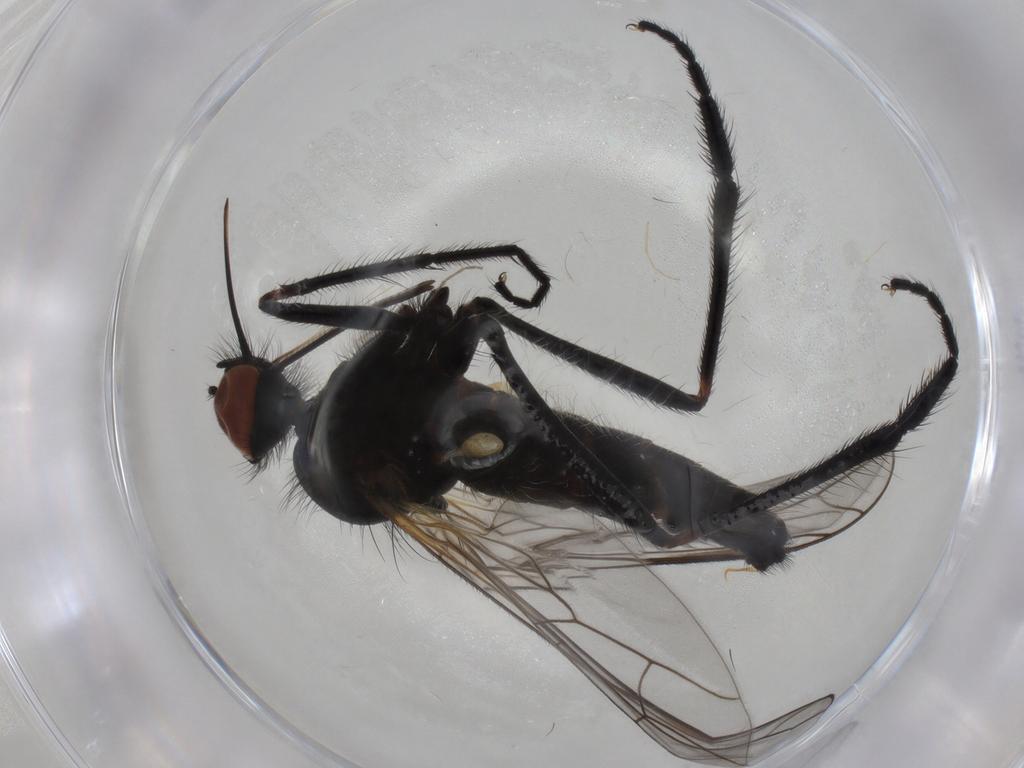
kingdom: Animalia
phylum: Arthropoda
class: Insecta
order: Diptera
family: Empididae
